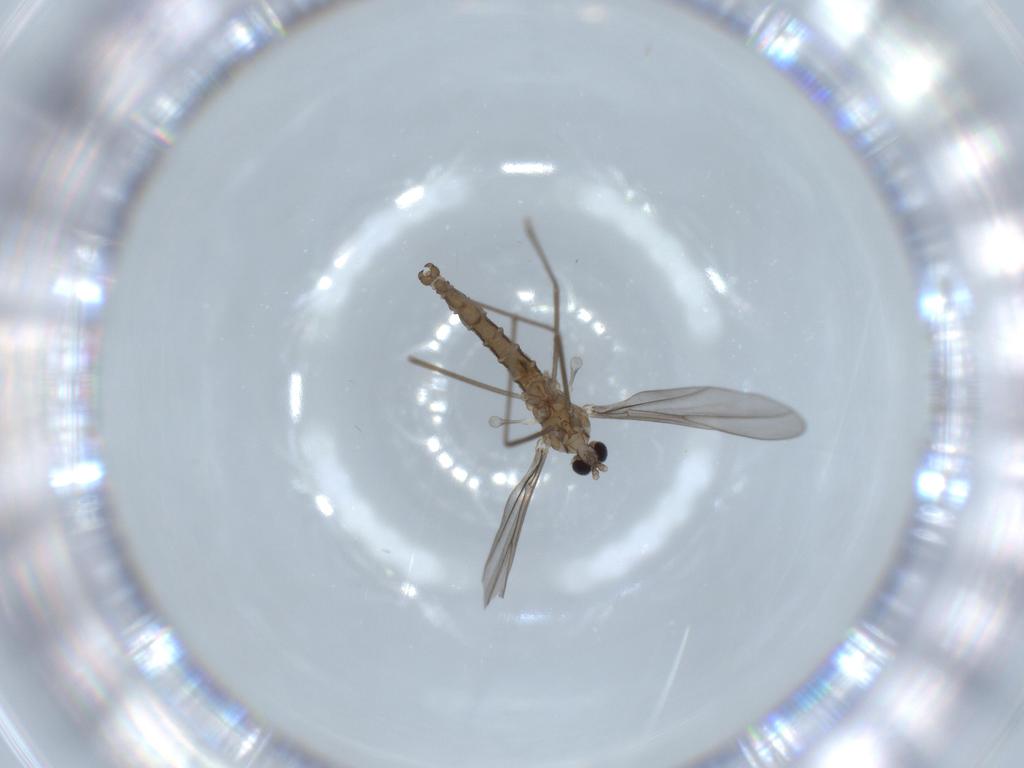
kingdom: Animalia
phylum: Arthropoda
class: Insecta
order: Diptera
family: Cecidomyiidae
